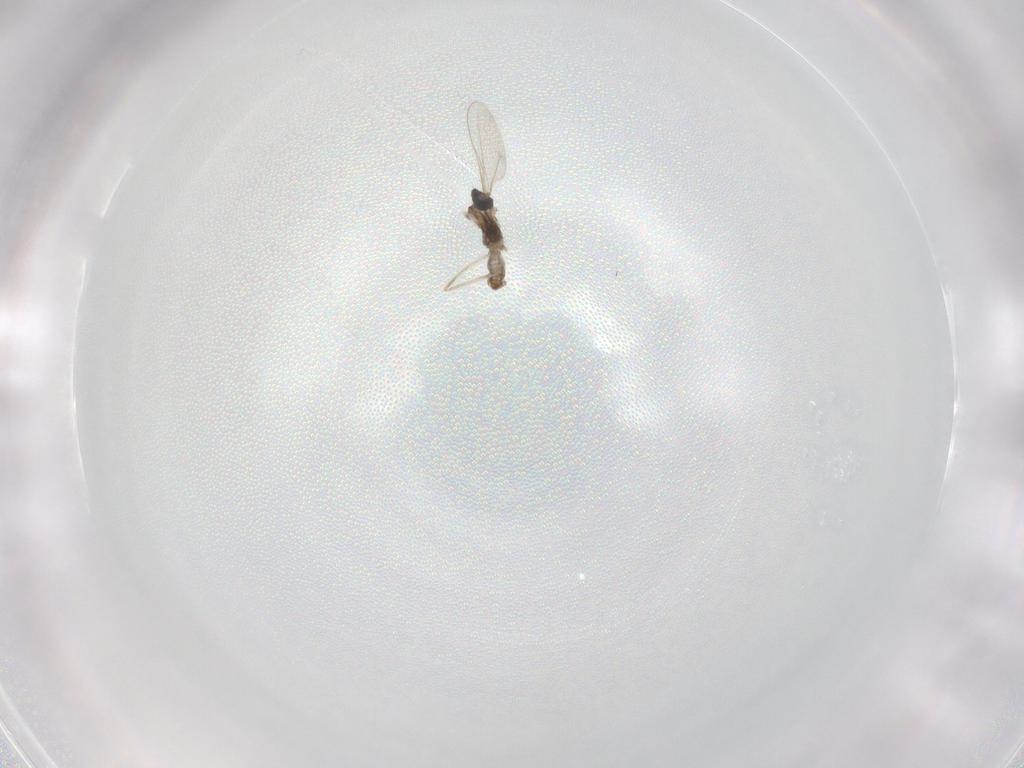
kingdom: Animalia
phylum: Arthropoda
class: Insecta
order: Diptera
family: Cecidomyiidae
